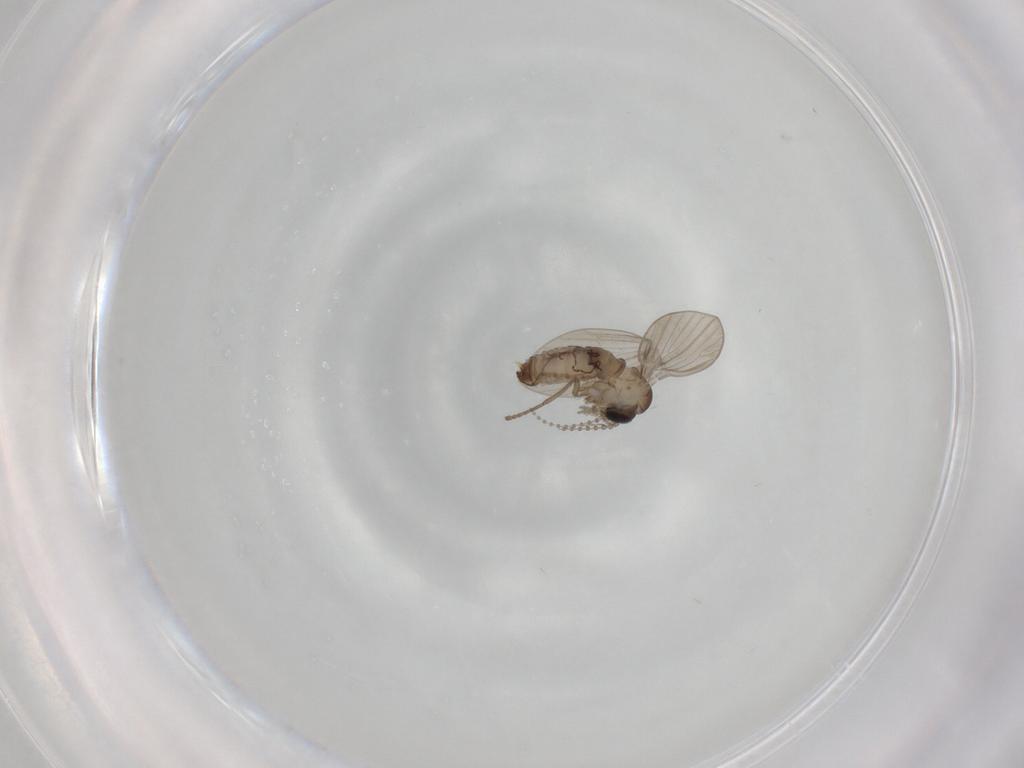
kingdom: Animalia
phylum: Arthropoda
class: Insecta
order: Diptera
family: Psychodidae
